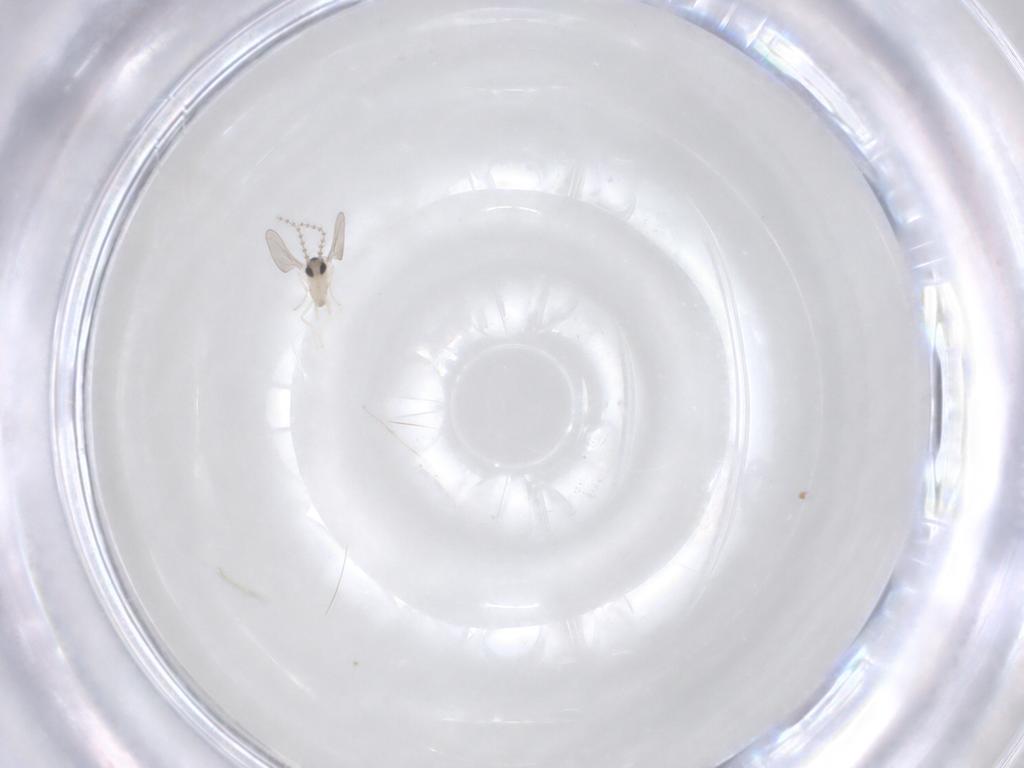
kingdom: Animalia
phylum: Arthropoda
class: Insecta
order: Diptera
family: Cecidomyiidae
